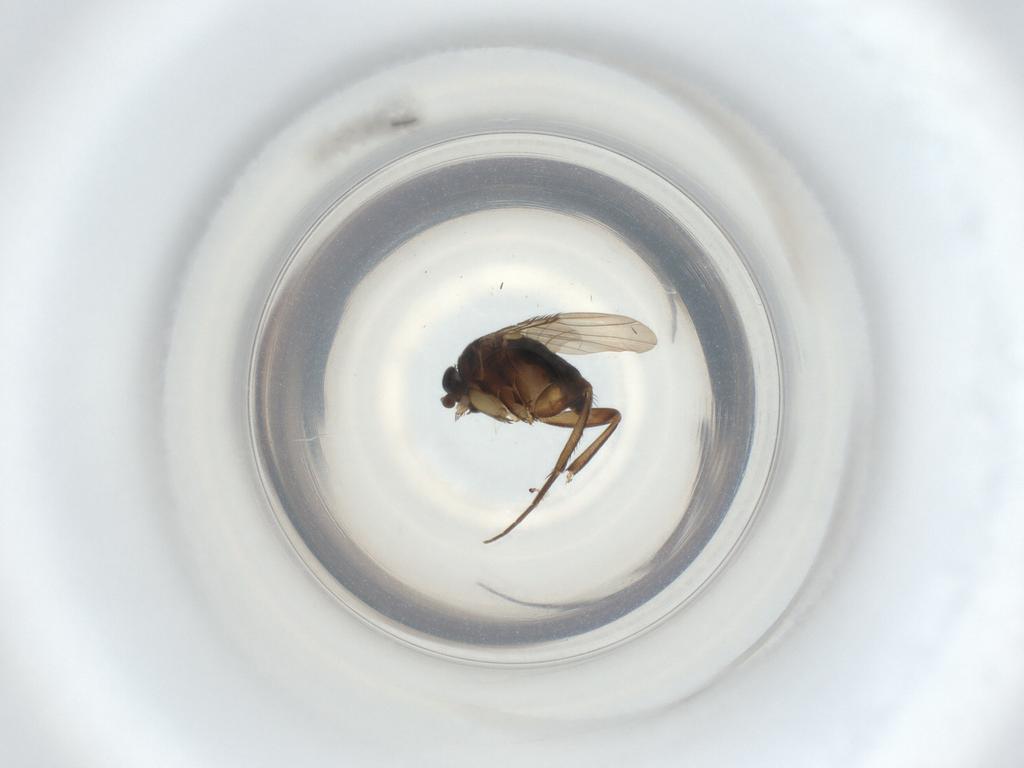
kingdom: Animalia
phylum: Arthropoda
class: Insecta
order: Diptera
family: Phoridae
